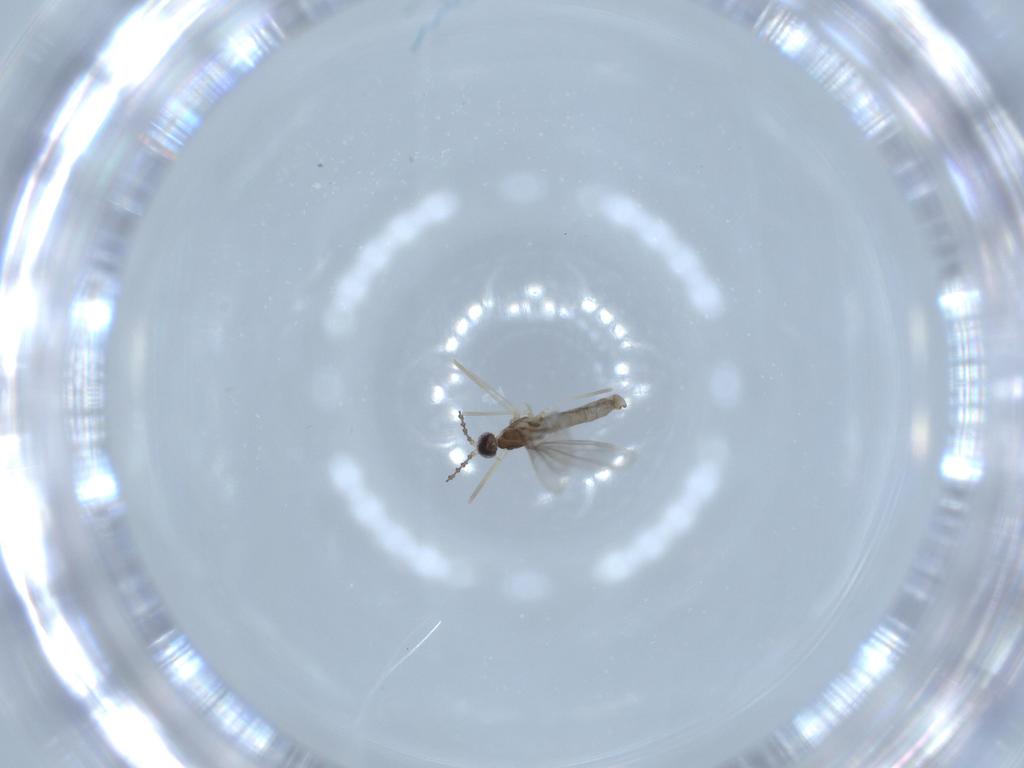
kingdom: Animalia
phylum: Arthropoda
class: Insecta
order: Diptera
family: Cecidomyiidae
